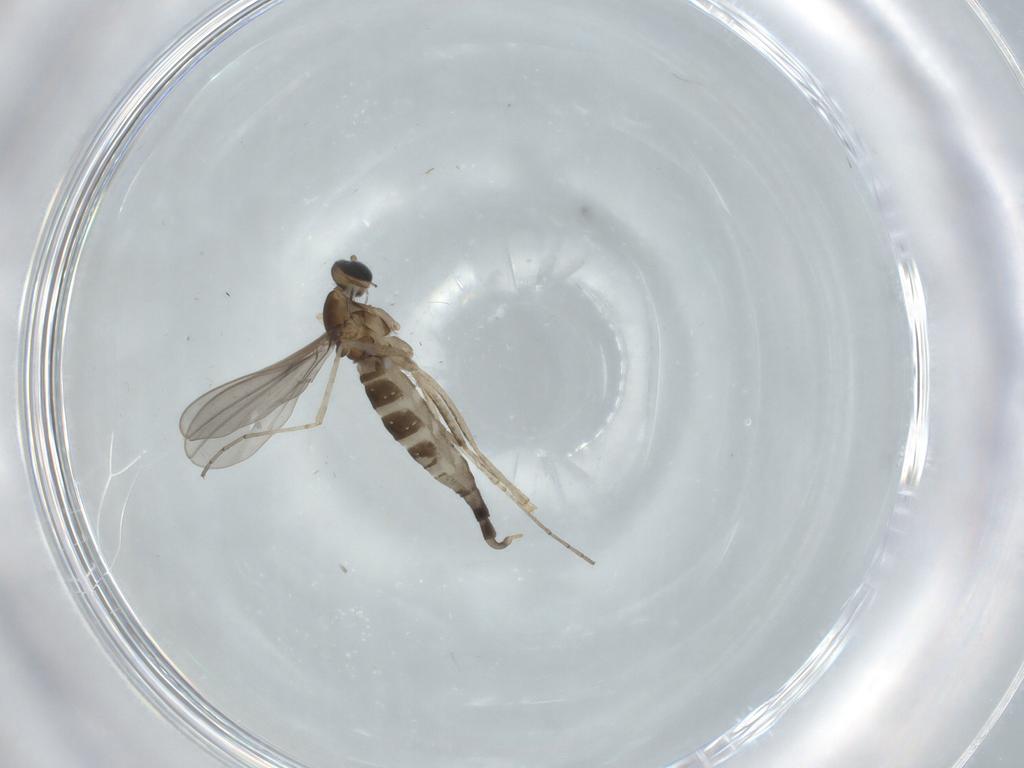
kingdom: Animalia
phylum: Arthropoda
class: Insecta
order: Diptera
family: Cecidomyiidae
